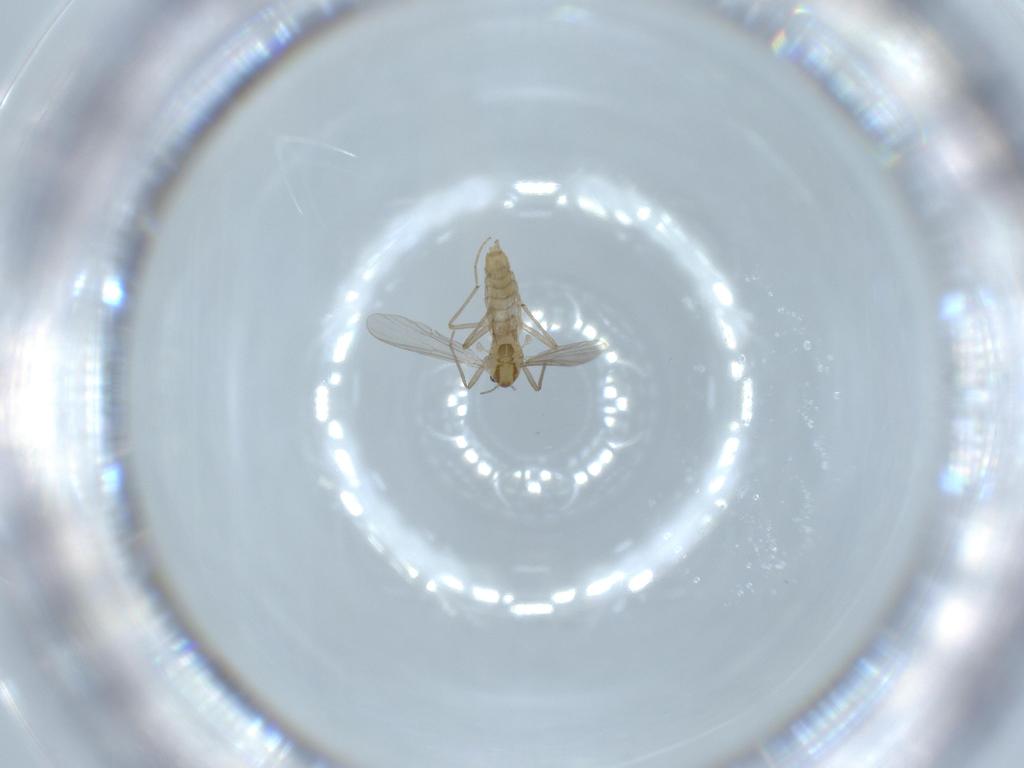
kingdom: Animalia
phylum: Arthropoda
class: Insecta
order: Diptera
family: Chironomidae
